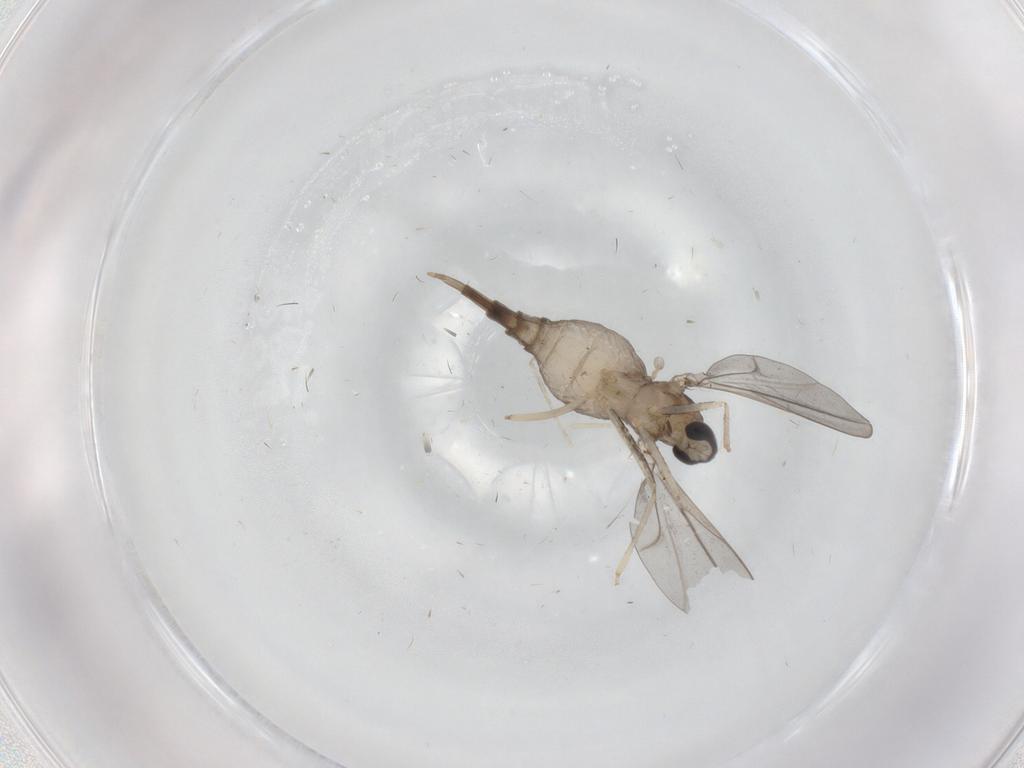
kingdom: Animalia
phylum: Arthropoda
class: Insecta
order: Diptera
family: Cecidomyiidae
